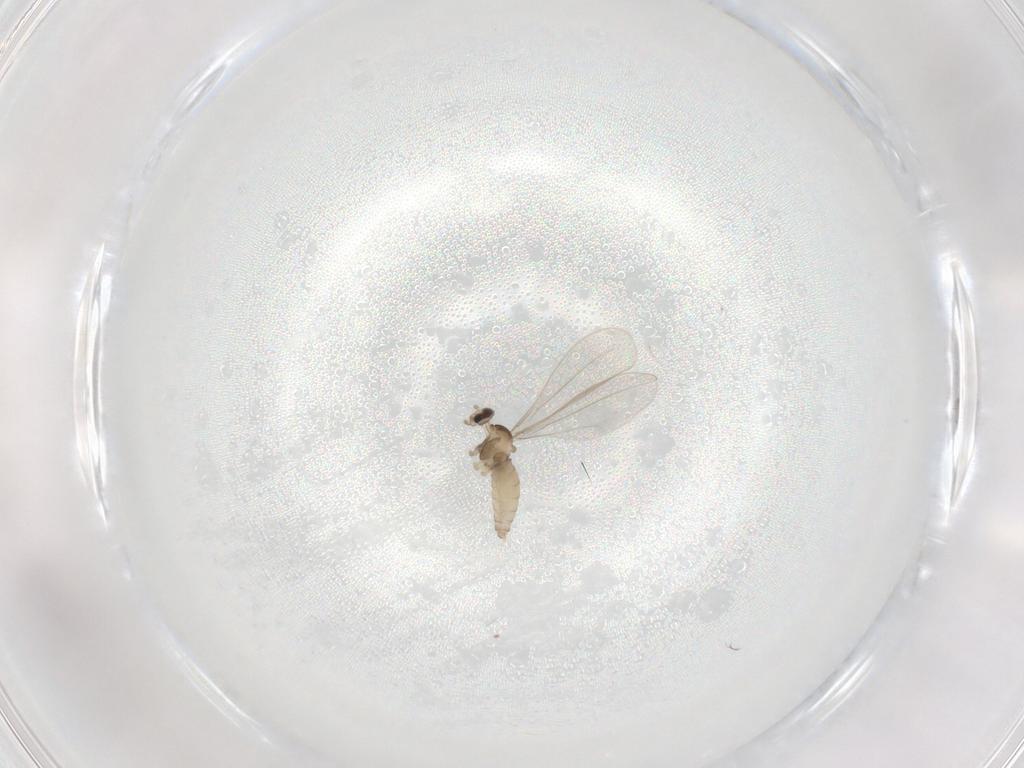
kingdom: Animalia
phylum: Arthropoda
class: Insecta
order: Diptera
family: Cecidomyiidae
